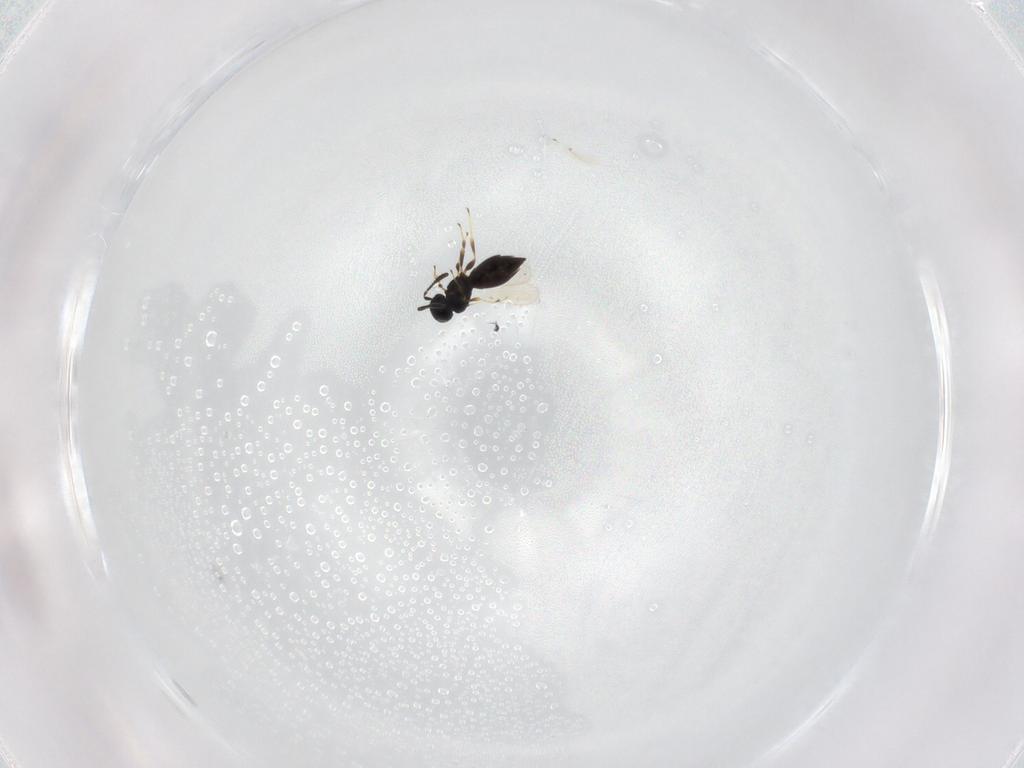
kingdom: Animalia
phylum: Arthropoda
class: Insecta
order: Hymenoptera
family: Scelionidae
